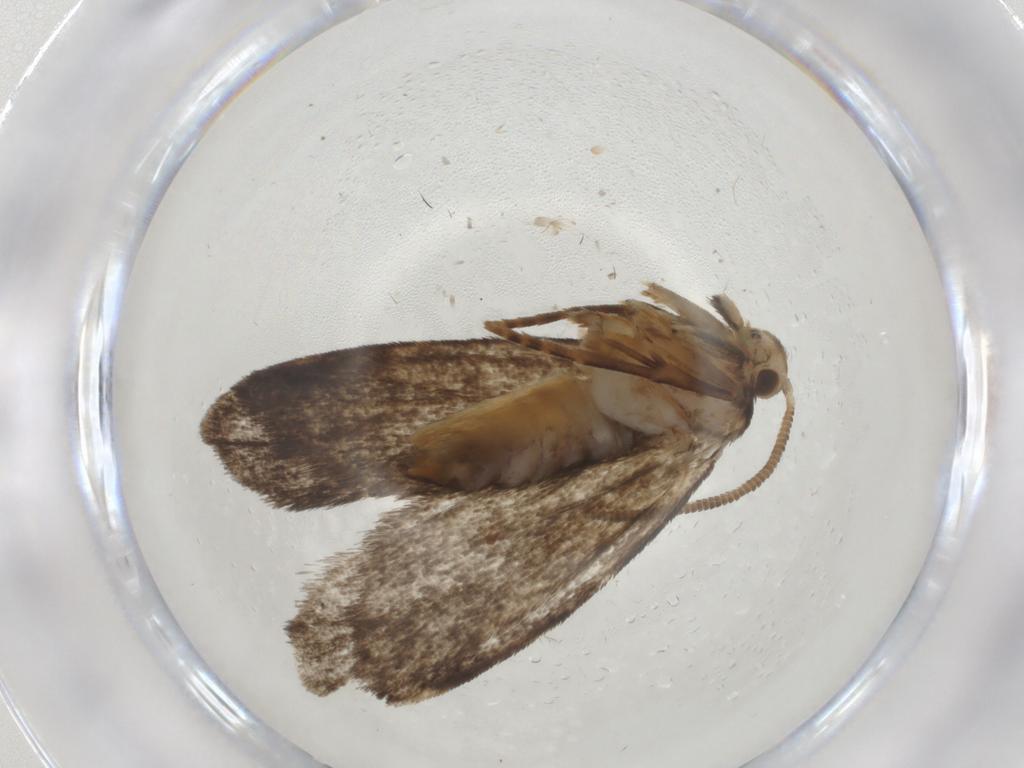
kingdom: Animalia
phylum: Arthropoda
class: Insecta
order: Lepidoptera
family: Dryadaulidae
